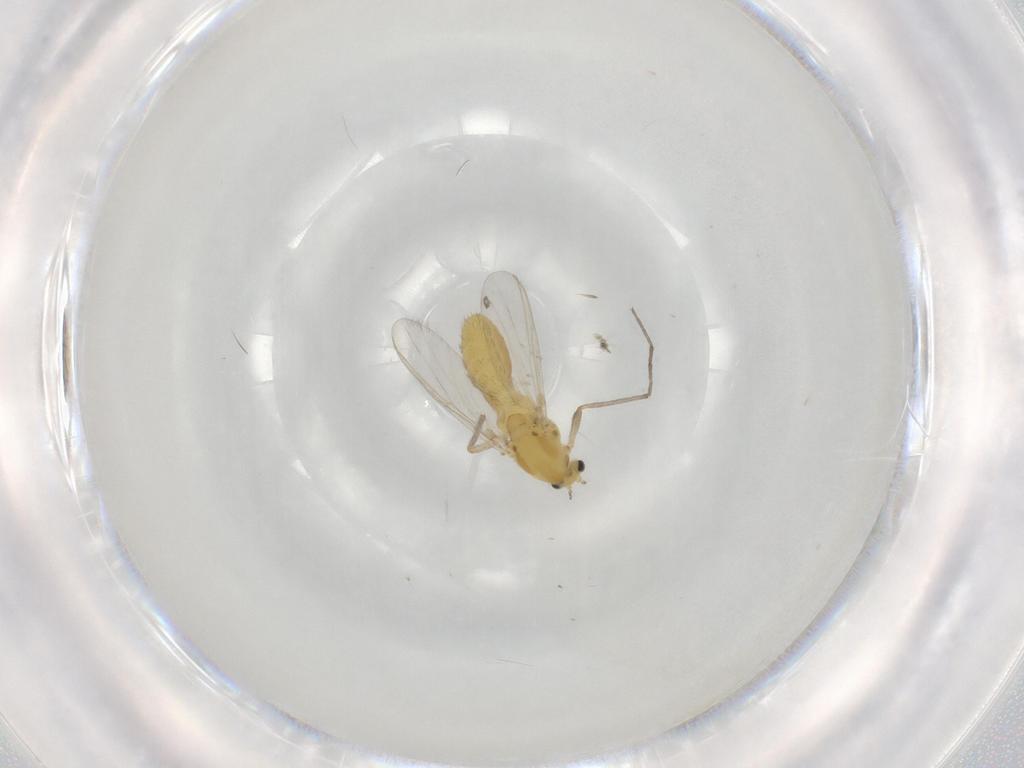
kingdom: Animalia
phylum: Arthropoda
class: Insecta
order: Diptera
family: Chironomidae
